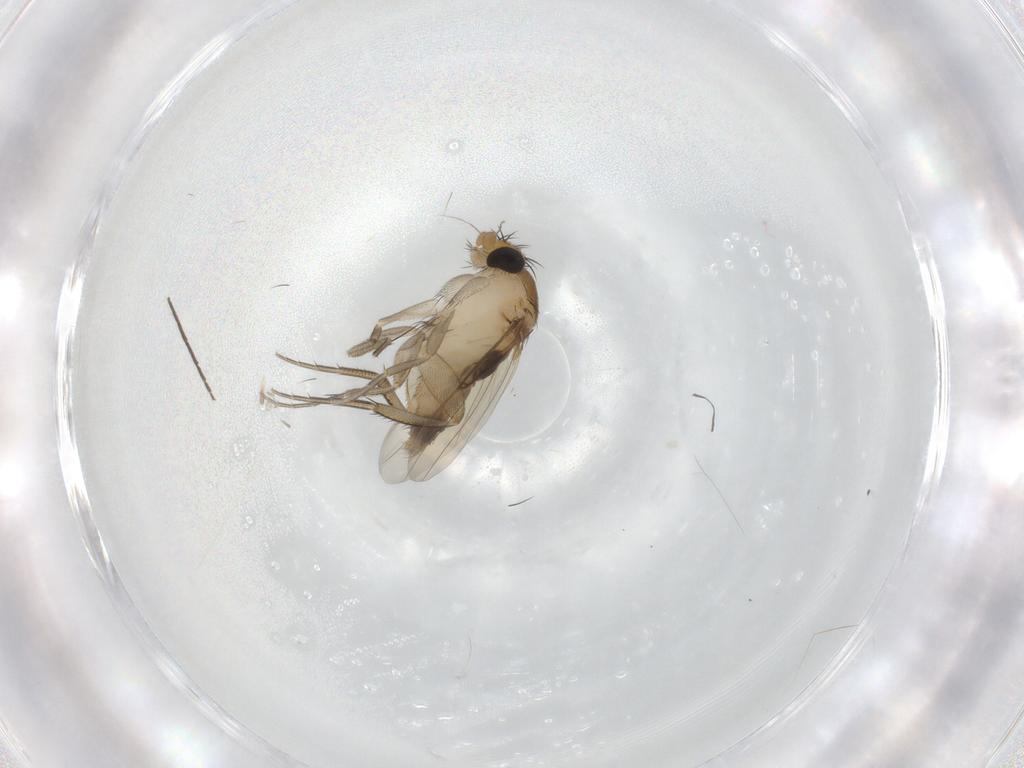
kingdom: Animalia
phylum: Arthropoda
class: Insecta
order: Diptera
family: Phoridae
